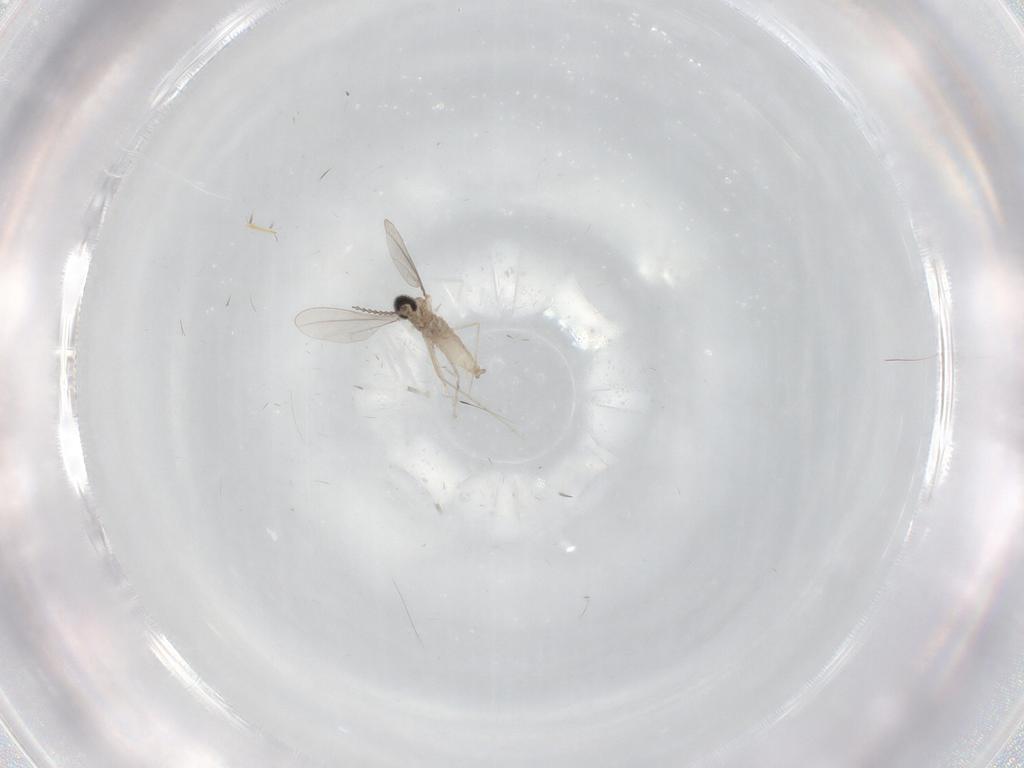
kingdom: Animalia
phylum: Arthropoda
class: Insecta
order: Diptera
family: Cecidomyiidae
